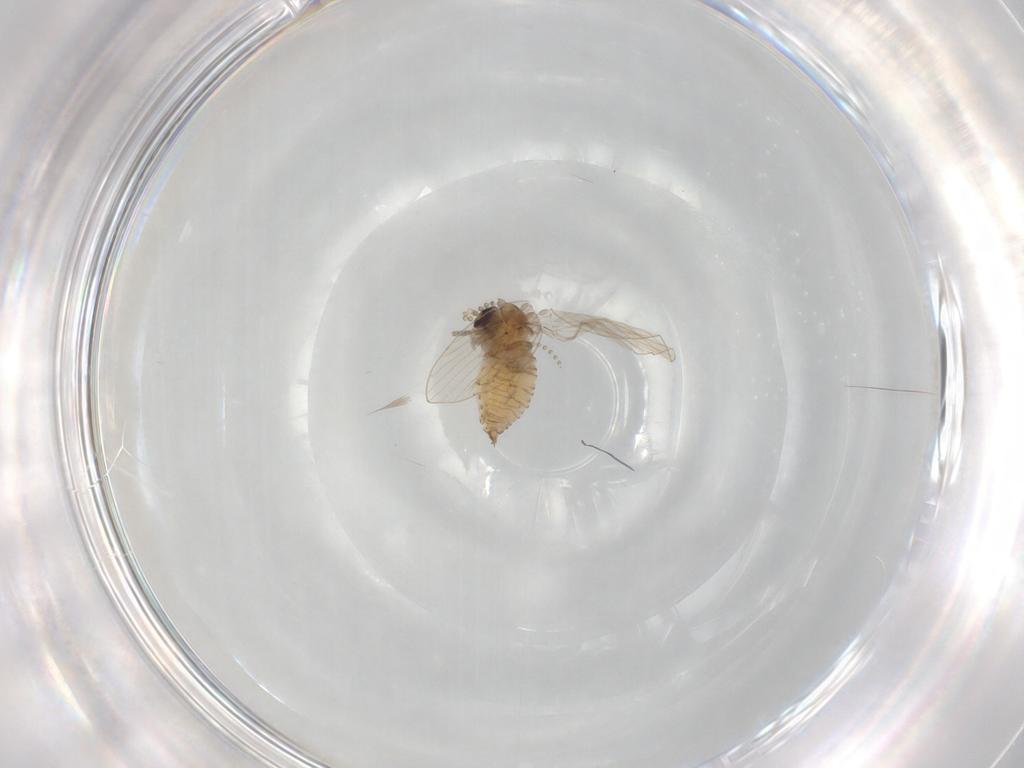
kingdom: Animalia
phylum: Arthropoda
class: Insecta
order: Diptera
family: Psychodidae
